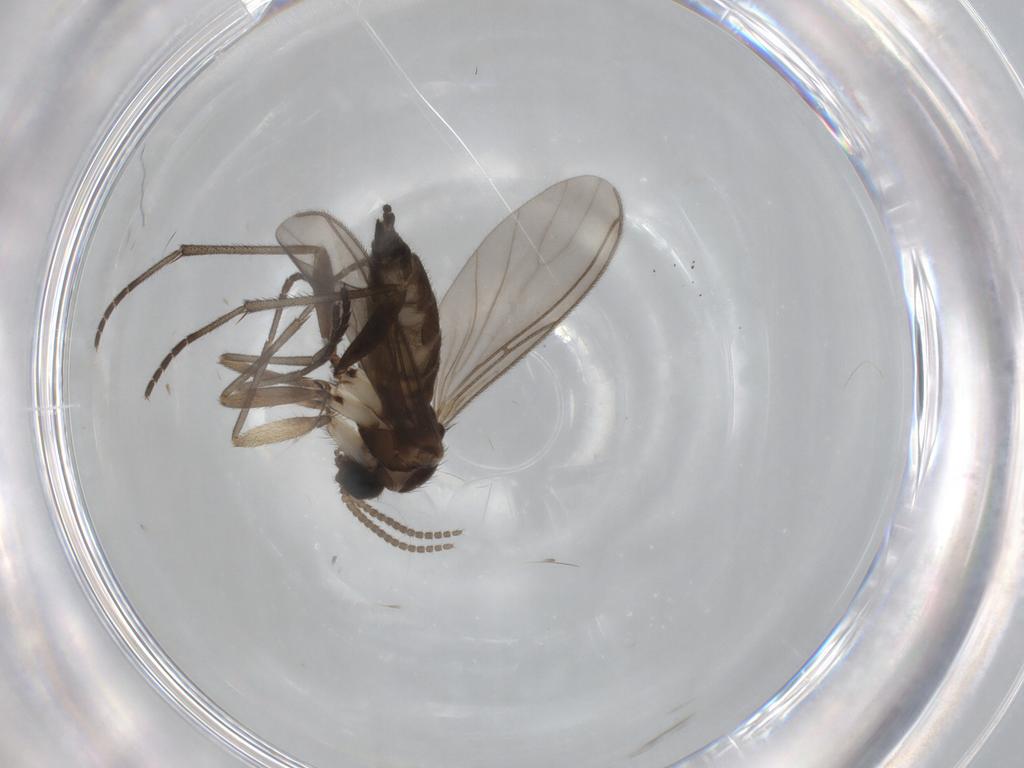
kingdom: Animalia
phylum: Arthropoda
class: Insecta
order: Diptera
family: Sciaridae
